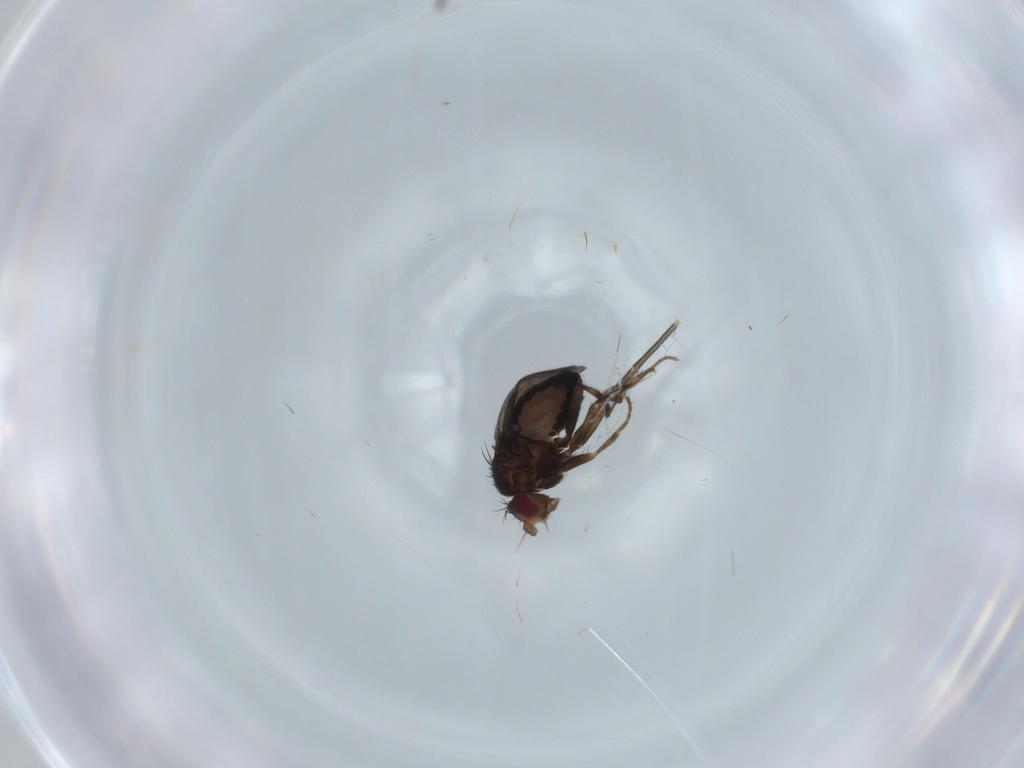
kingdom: Animalia
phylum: Arthropoda
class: Insecta
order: Diptera
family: Sphaeroceridae
